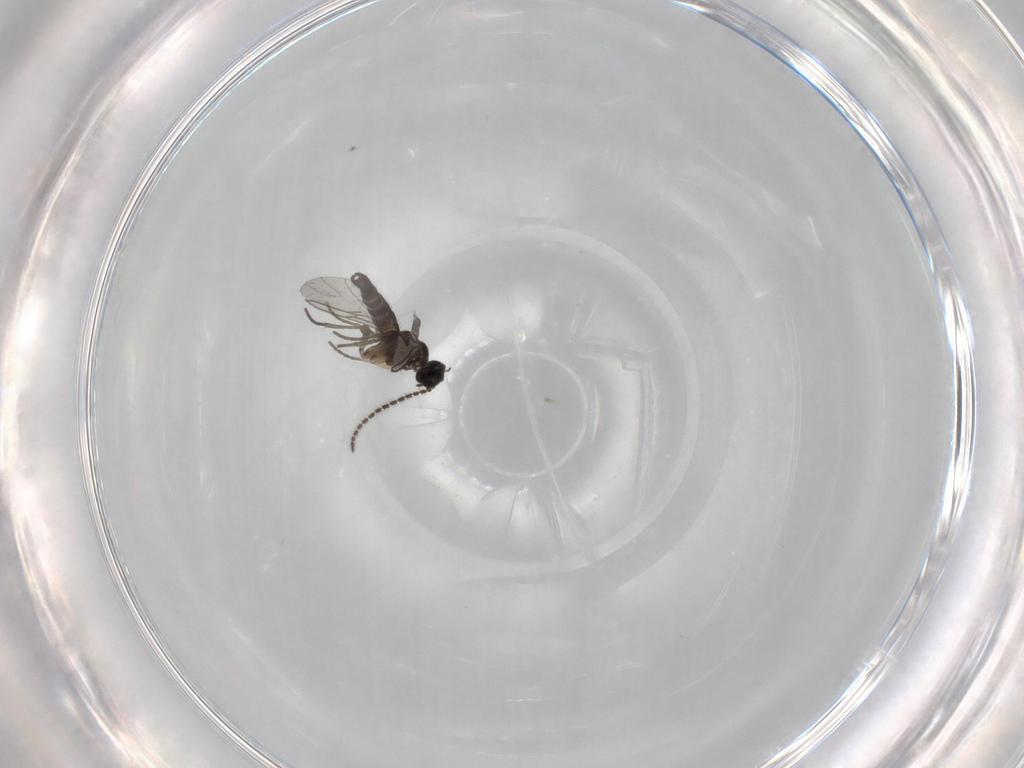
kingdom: Animalia
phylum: Arthropoda
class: Insecta
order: Diptera
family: Sciaridae
